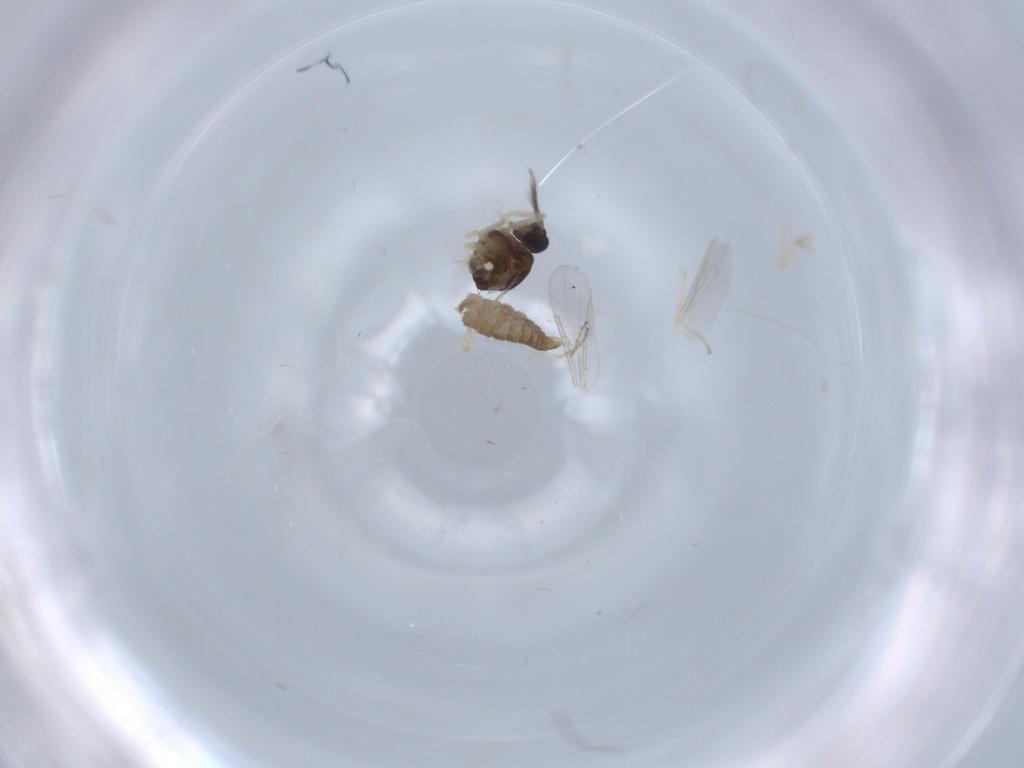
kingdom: Animalia
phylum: Arthropoda
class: Insecta
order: Diptera
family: Ceratopogonidae
